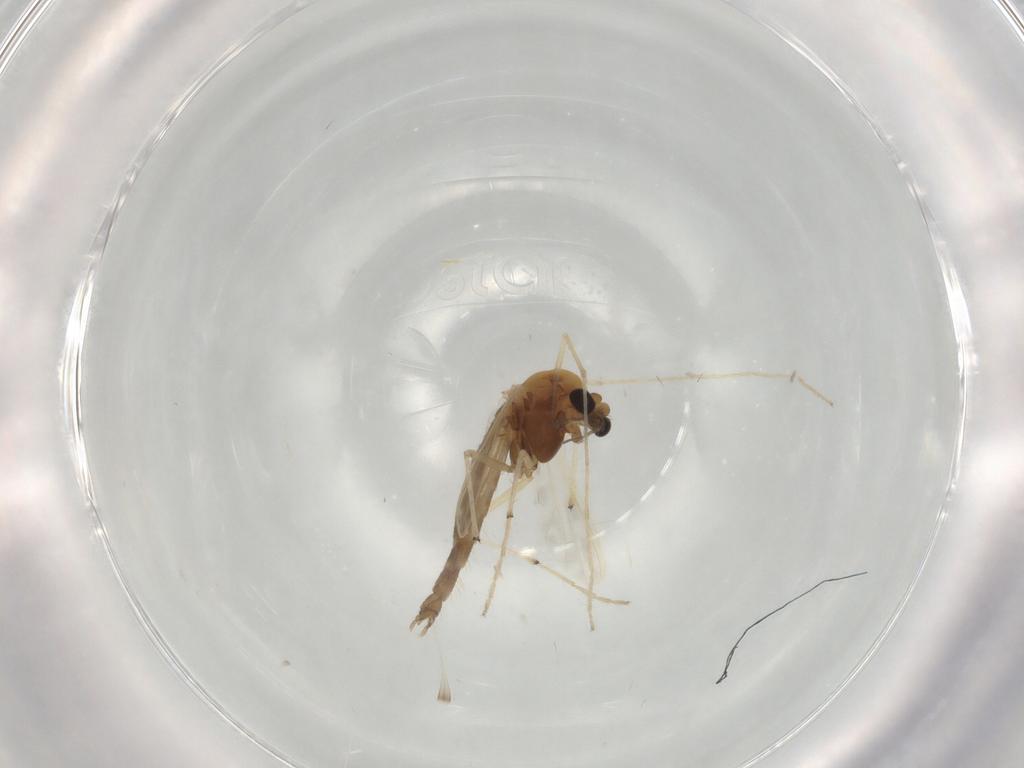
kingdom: Animalia
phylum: Arthropoda
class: Insecta
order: Diptera
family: Chironomidae
